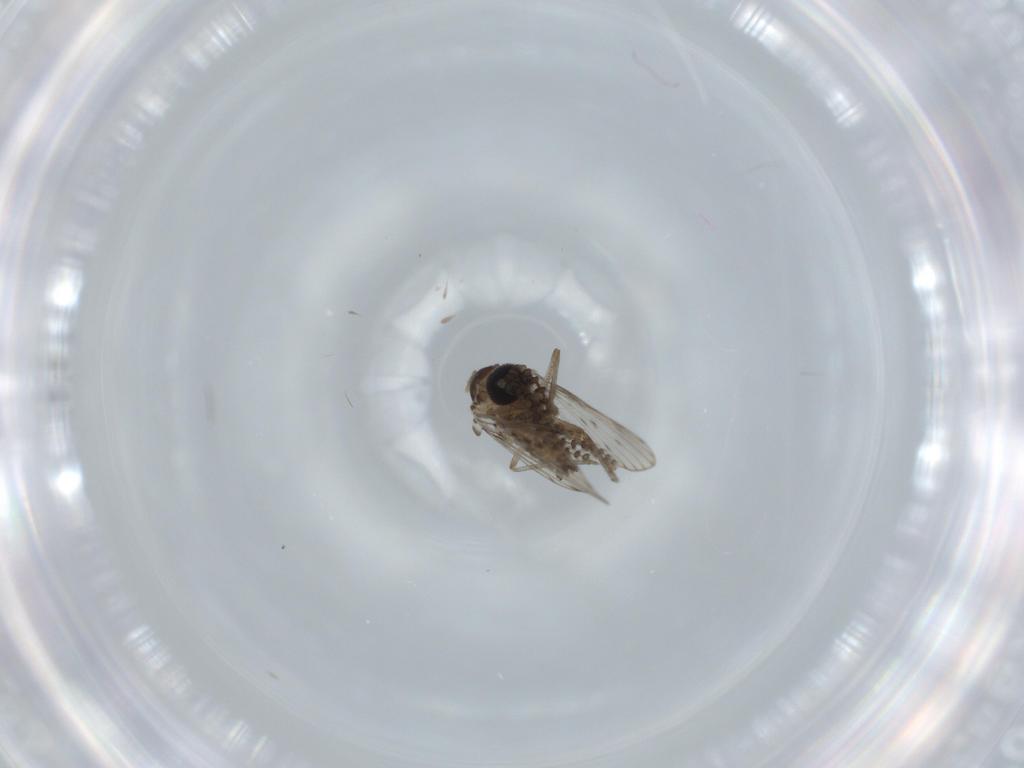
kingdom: Animalia
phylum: Arthropoda
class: Insecta
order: Diptera
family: Psychodidae
